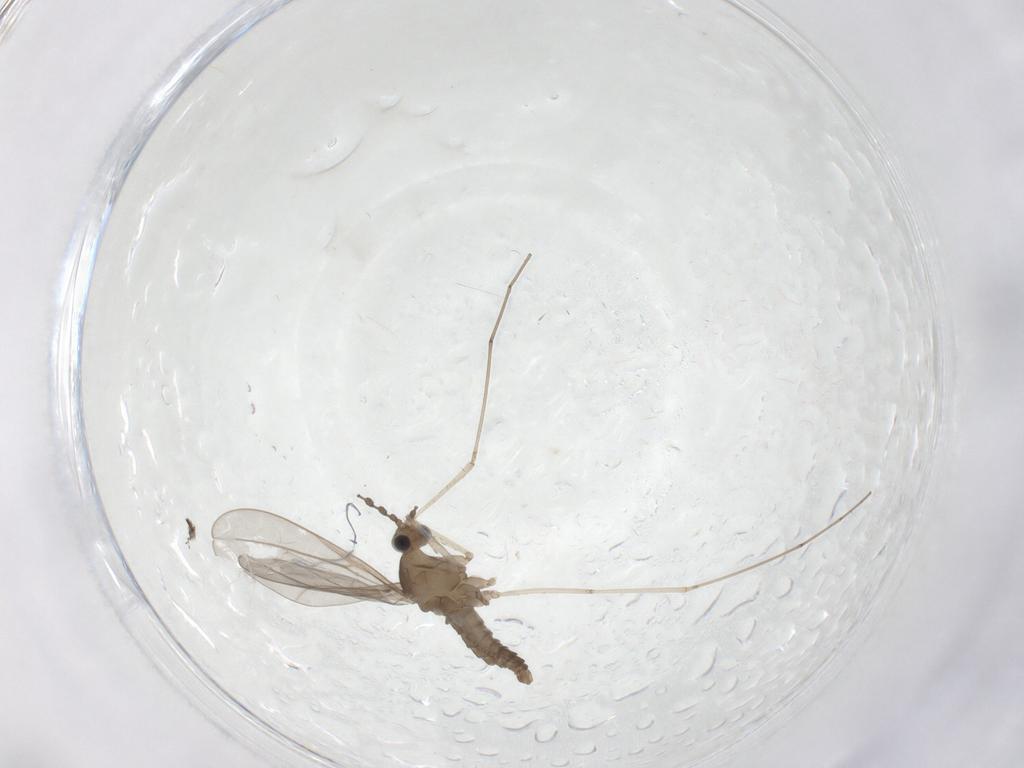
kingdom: Animalia
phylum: Arthropoda
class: Insecta
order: Diptera
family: Cecidomyiidae
